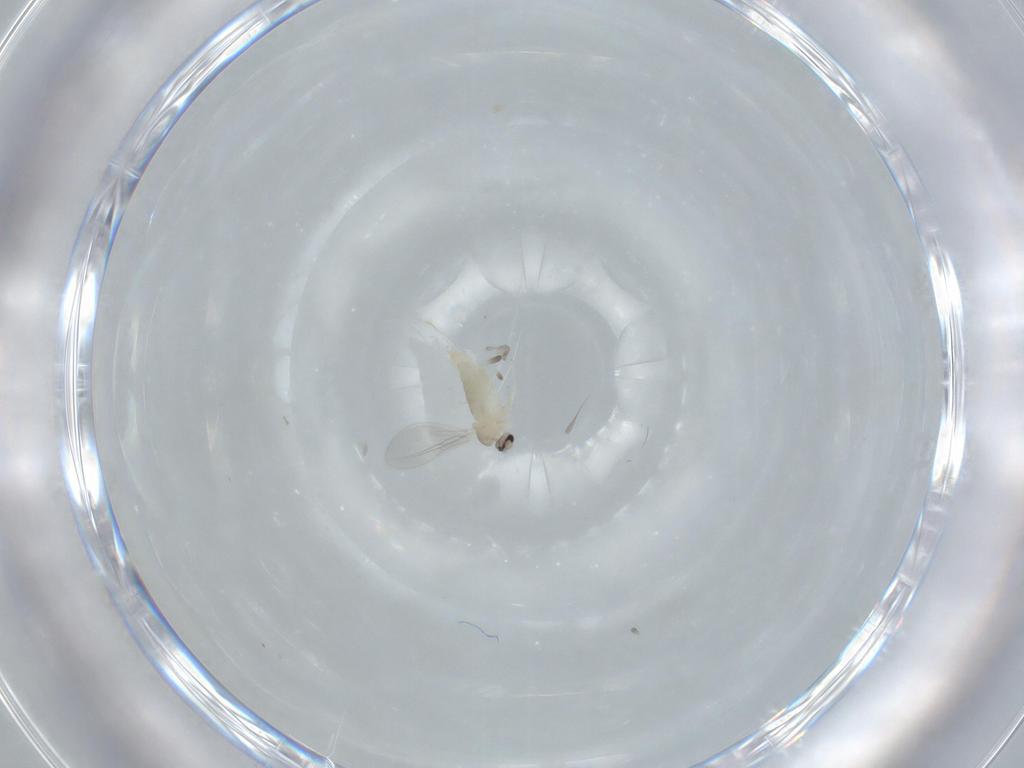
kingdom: Animalia
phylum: Arthropoda
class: Insecta
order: Diptera
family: Cecidomyiidae
